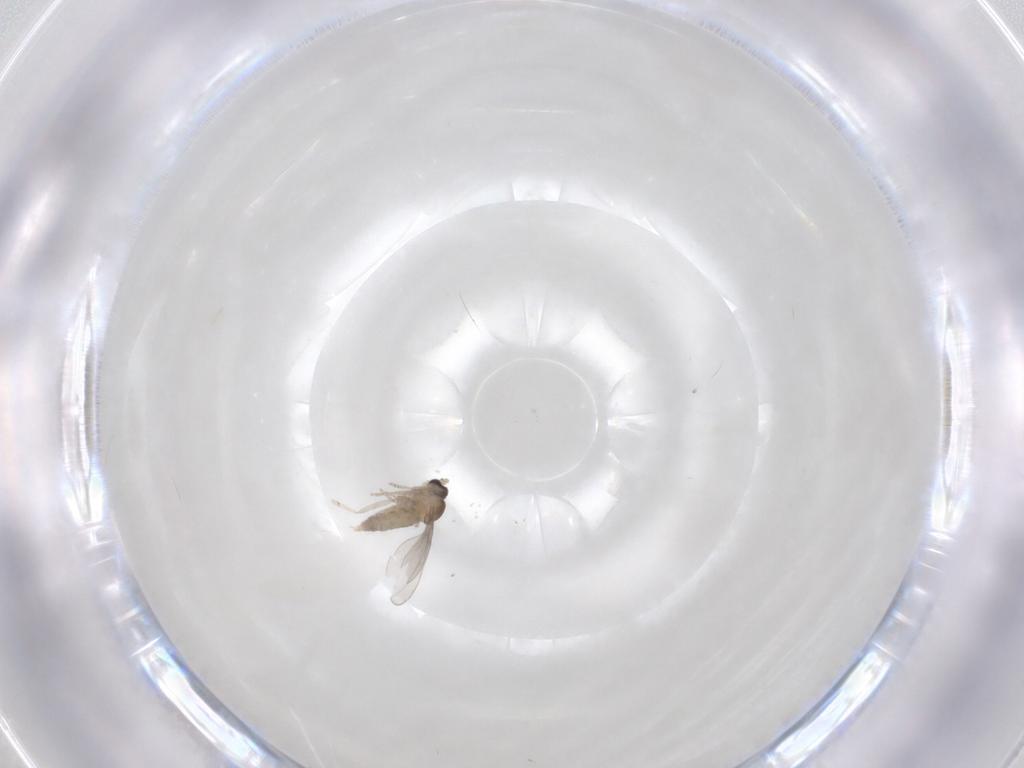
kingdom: Animalia
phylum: Arthropoda
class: Insecta
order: Diptera
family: Cecidomyiidae
